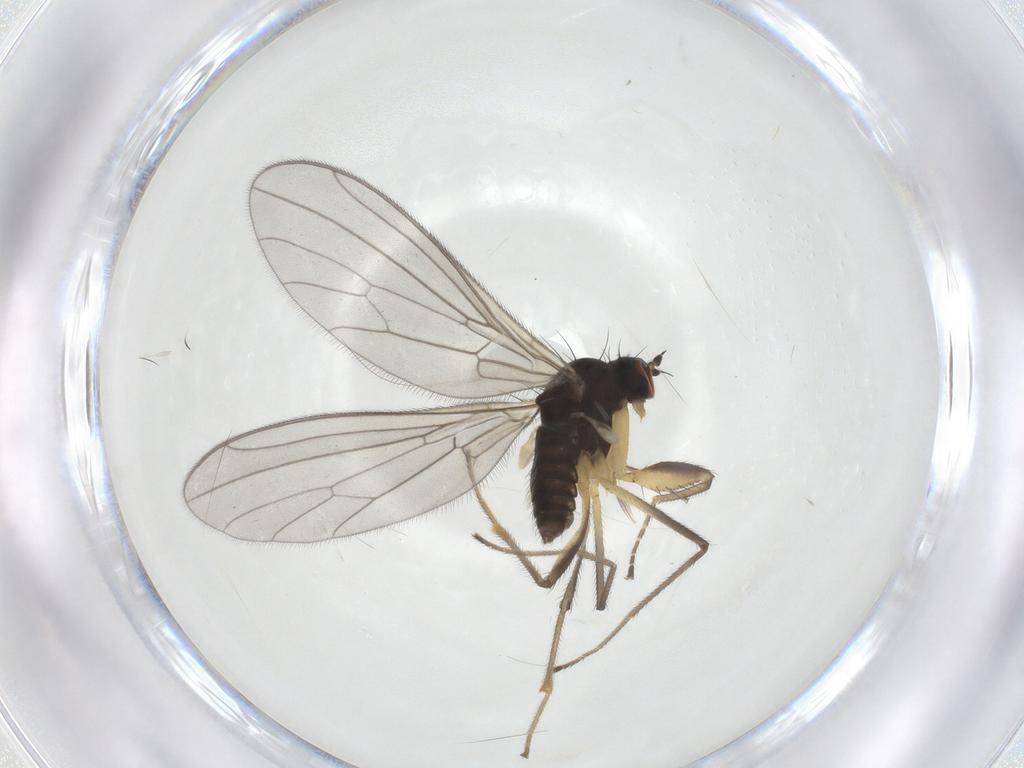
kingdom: Animalia
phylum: Arthropoda
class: Insecta
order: Diptera
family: Empididae
